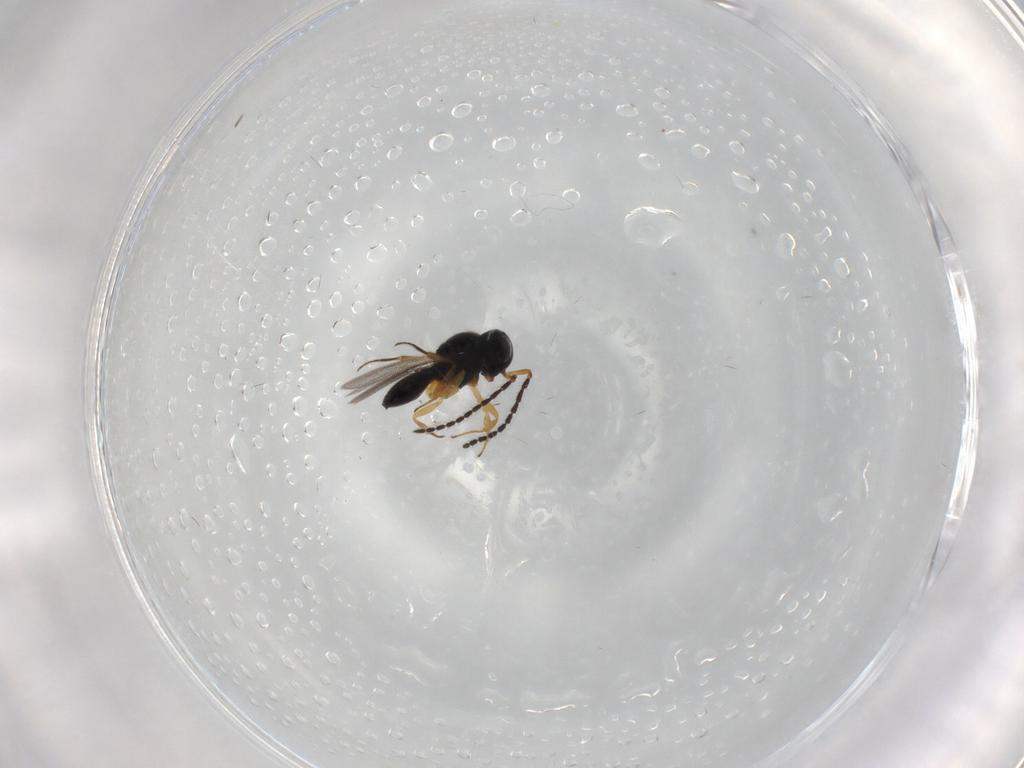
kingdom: Animalia
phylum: Arthropoda
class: Insecta
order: Hymenoptera
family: Scelionidae
